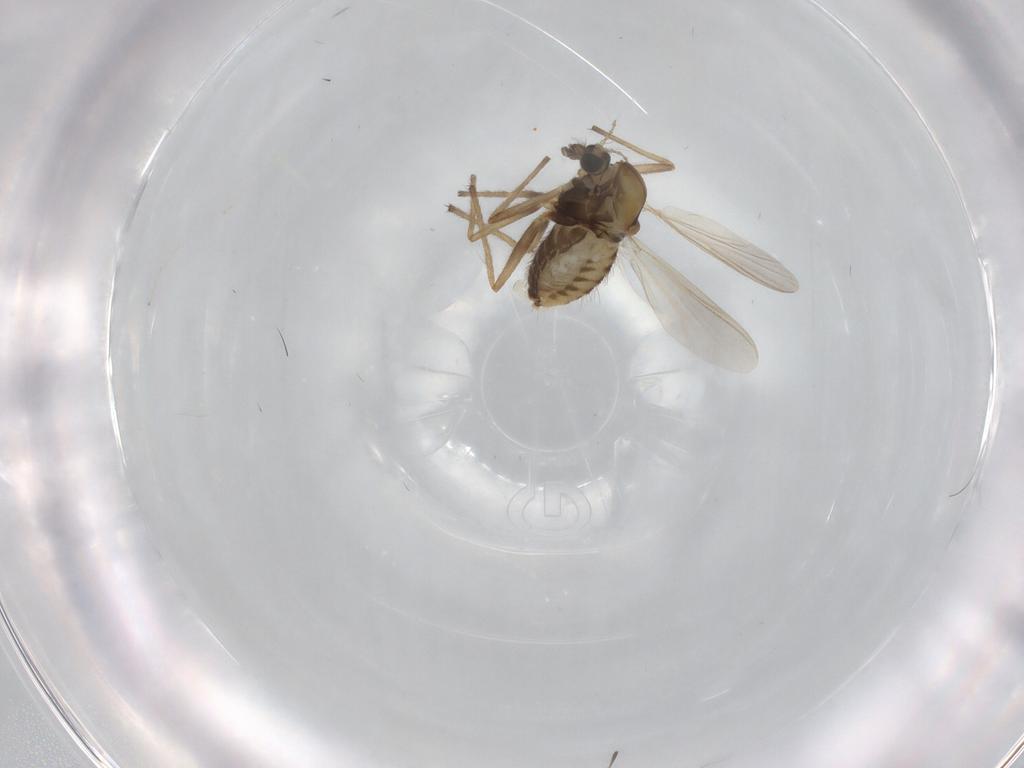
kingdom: Animalia
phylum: Arthropoda
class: Insecta
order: Diptera
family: Chironomidae
